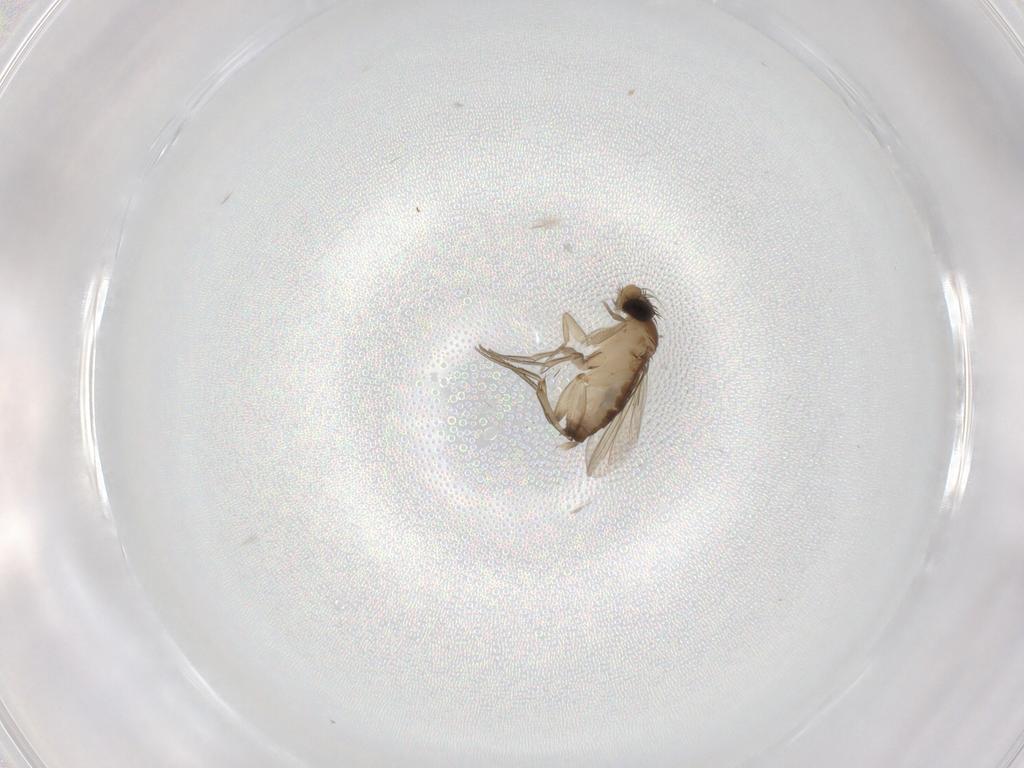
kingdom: Animalia
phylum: Arthropoda
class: Insecta
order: Diptera
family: Phoridae
